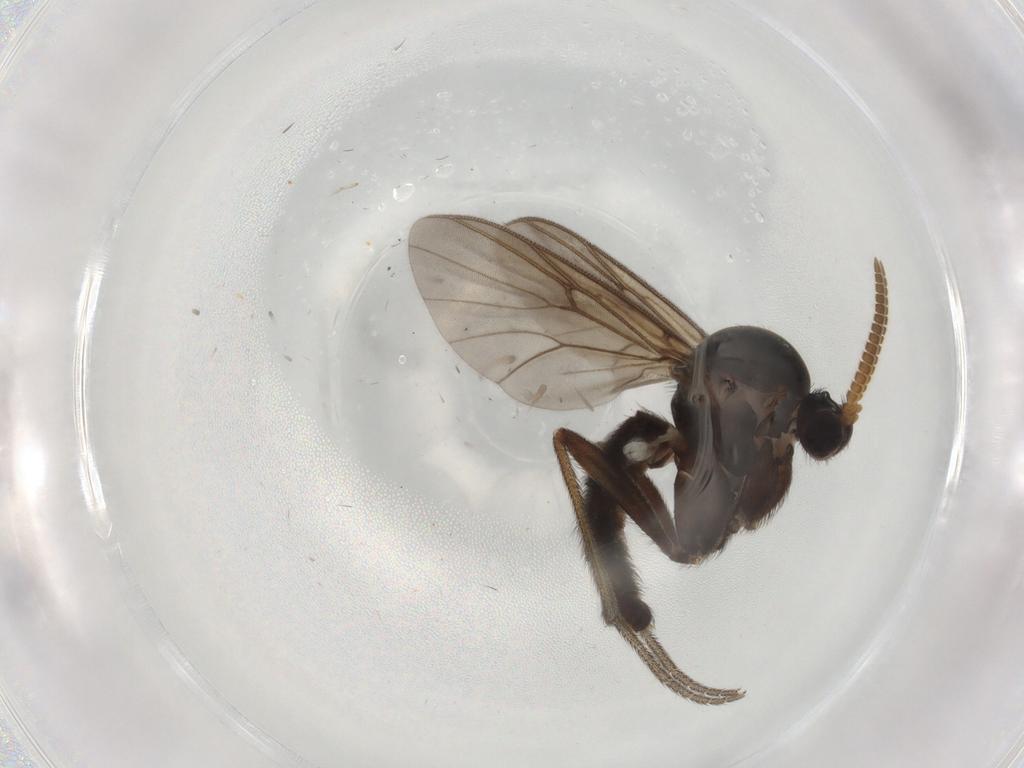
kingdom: Animalia
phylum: Arthropoda
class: Insecta
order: Diptera
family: Mycetophilidae
